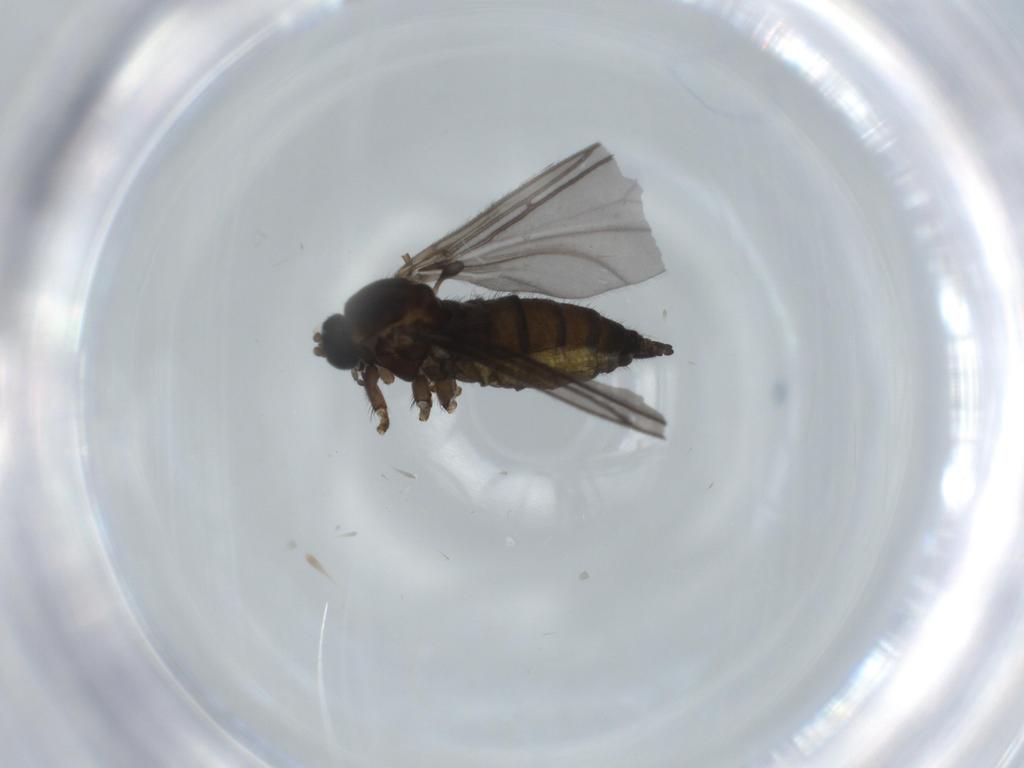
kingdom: Animalia
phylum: Arthropoda
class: Insecta
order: Diptera
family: Sciaridae
